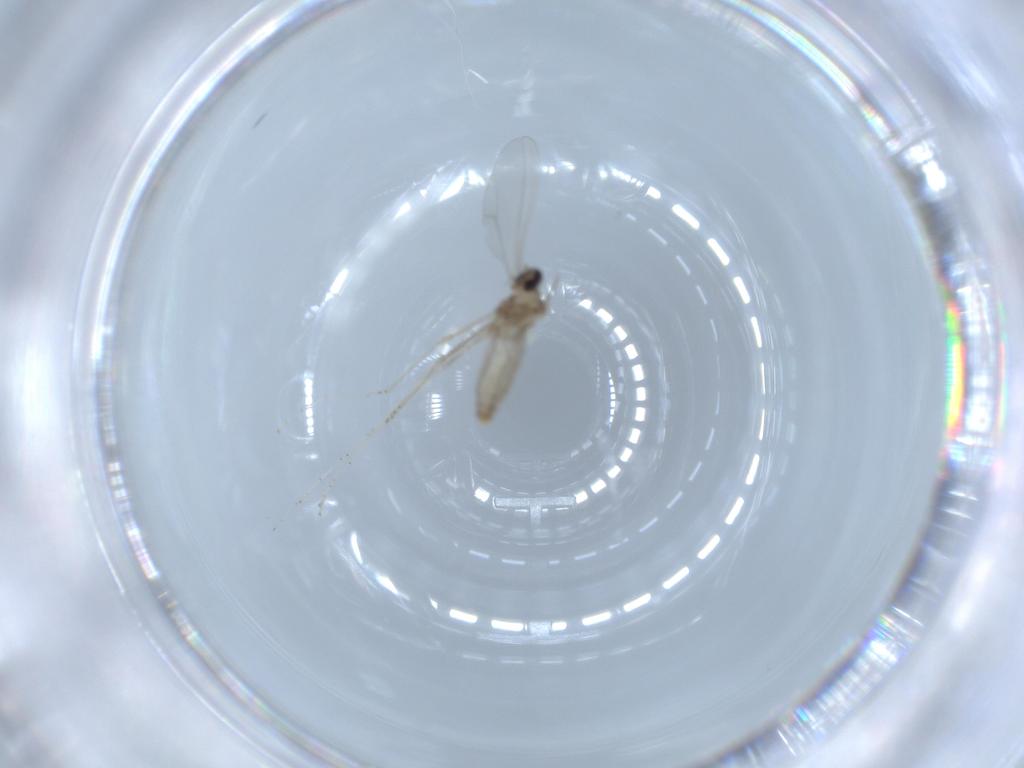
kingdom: Animalia
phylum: Arthropoda
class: Insecta
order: Diptera
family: Cecidomyiidae
